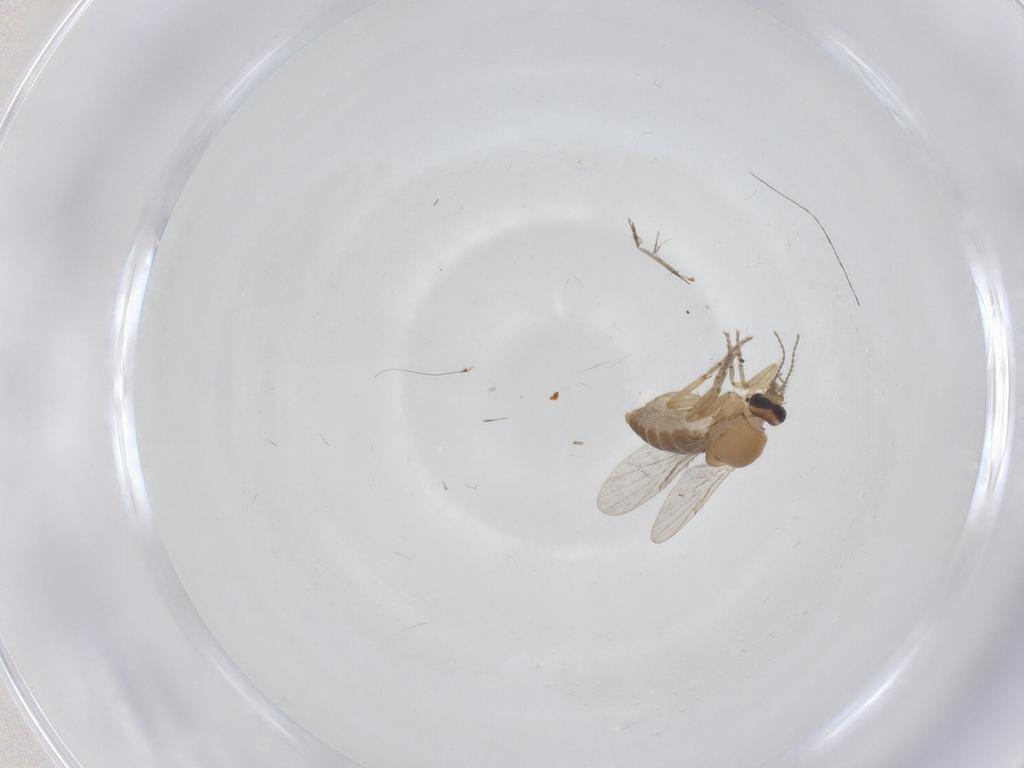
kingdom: Animalia
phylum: Arthropoda
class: Insecta
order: Diptera
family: Ceratopogonidae
